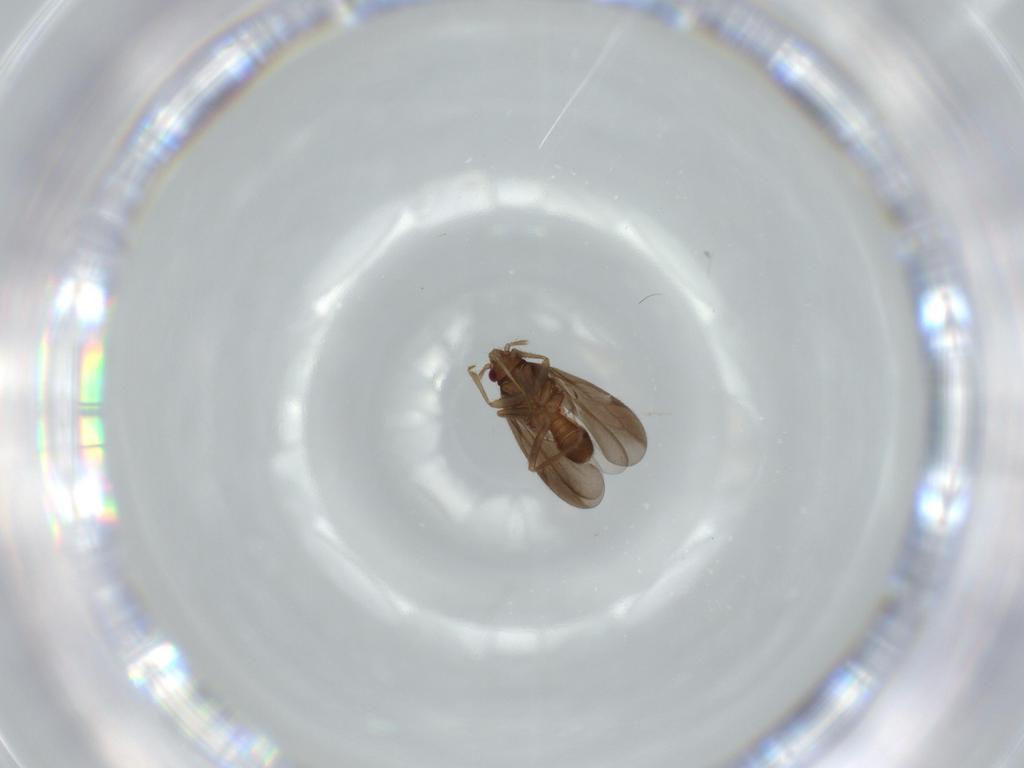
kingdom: Animalia
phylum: Arthropoda
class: Insecta
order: Hemiptera
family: Ceratocombidae
